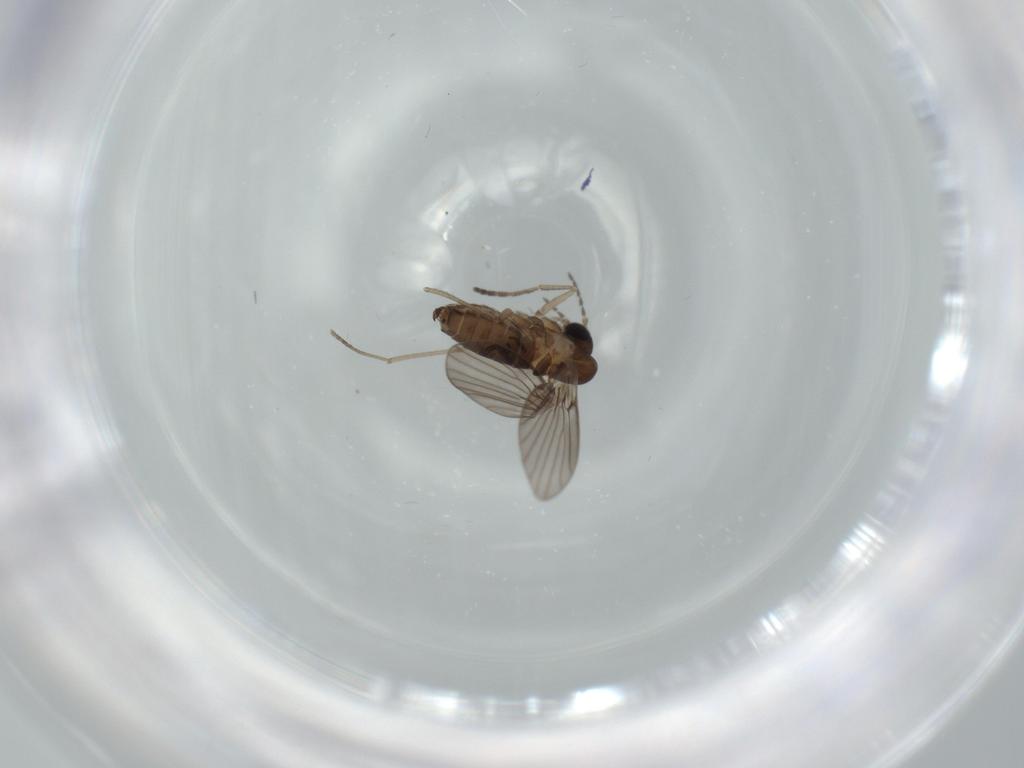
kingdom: Animalia
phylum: Arthropoda
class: Insecta
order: Diptera
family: Psychodidae
